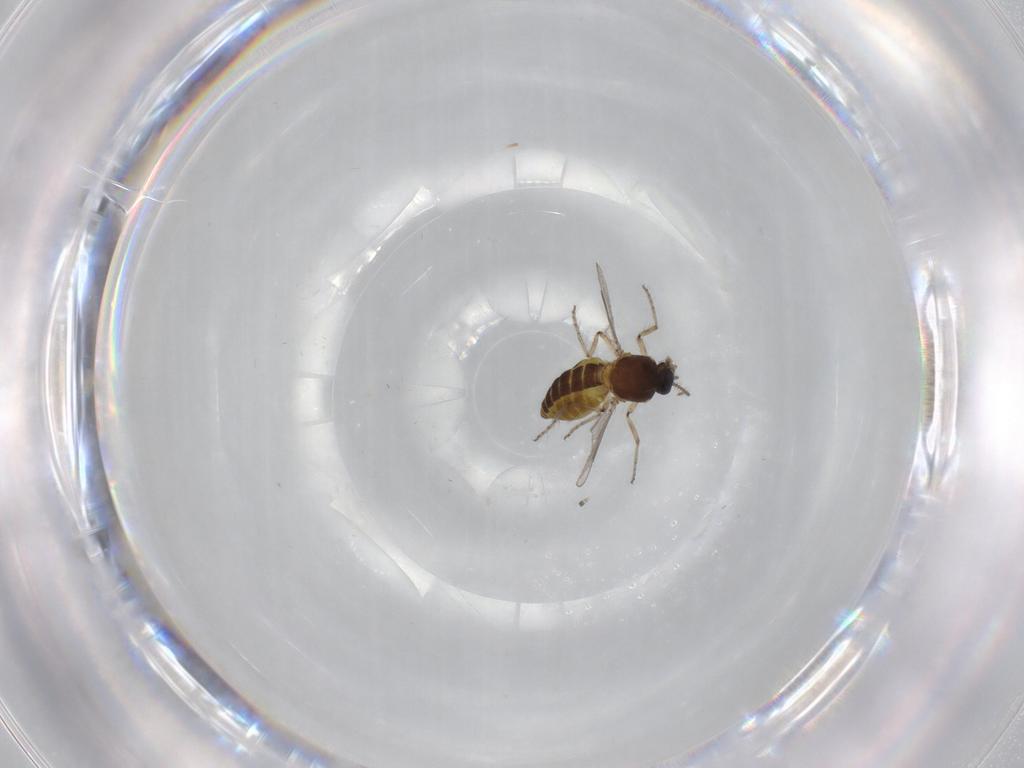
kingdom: Animalia
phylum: Arthropoda
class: Insecta
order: Diptera
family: Ceratopogonidae
